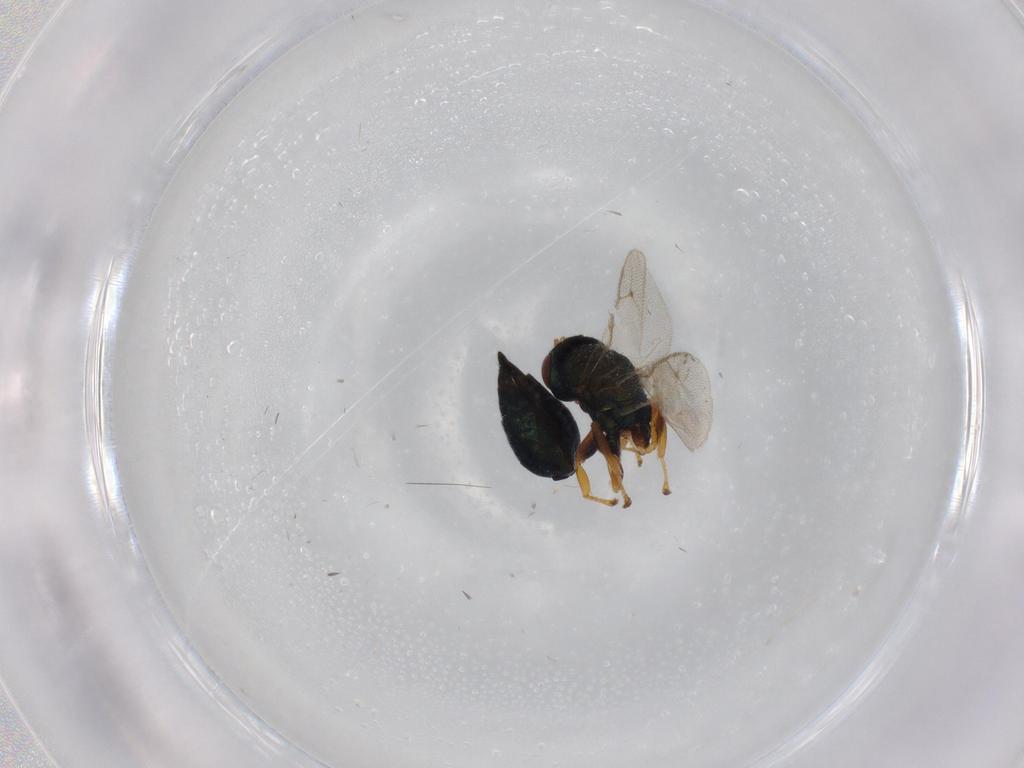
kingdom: Animalia
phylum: Arthropoda
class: Insecta
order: Hymenoptera
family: Pteromalidae
